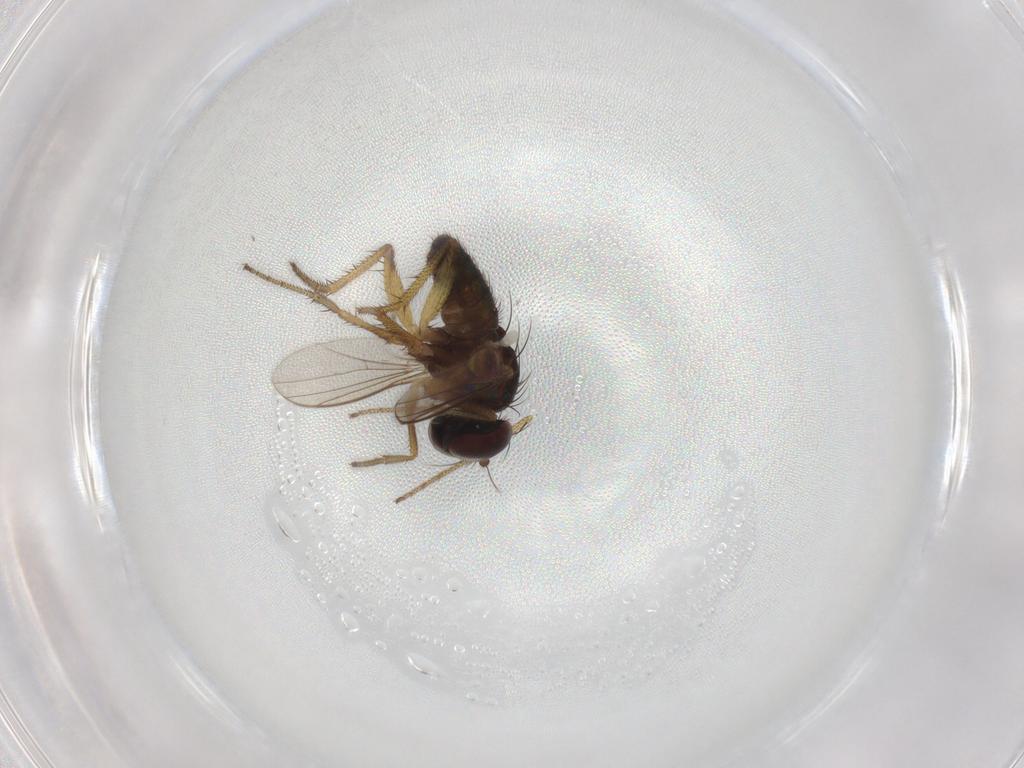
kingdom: Animalia
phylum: Arthropoda
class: Insecta
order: Diptera
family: Dolichopodidae
